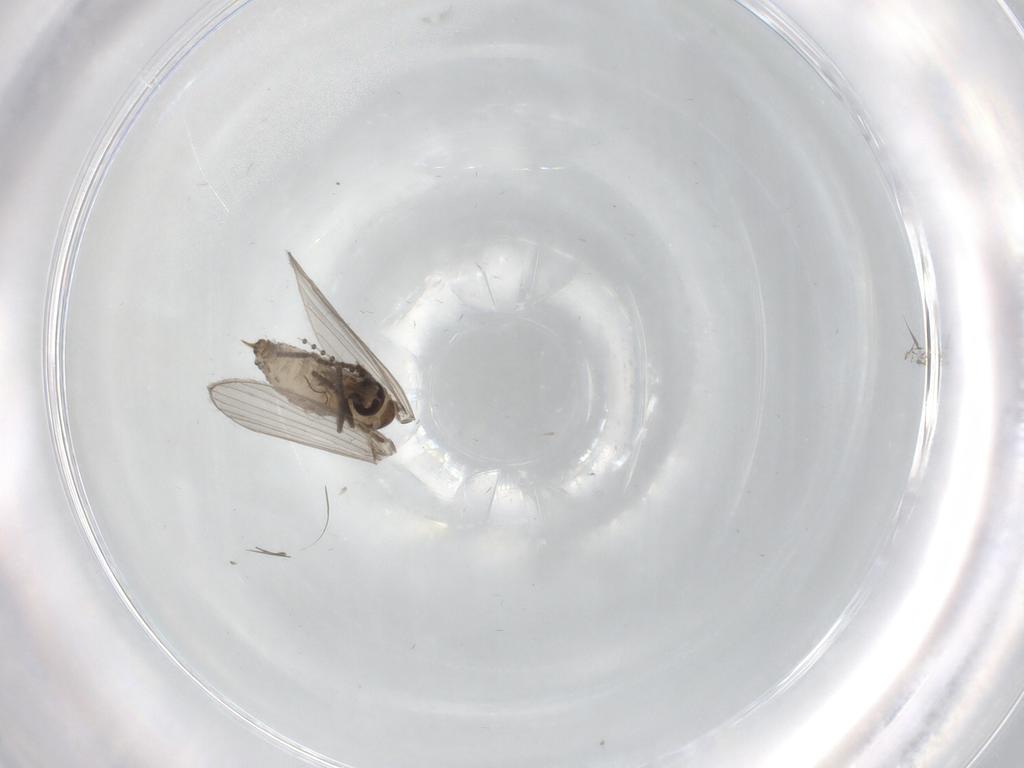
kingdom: Animalia
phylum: Arthropoda
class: Insecta
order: Diptera
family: Psychodidae
